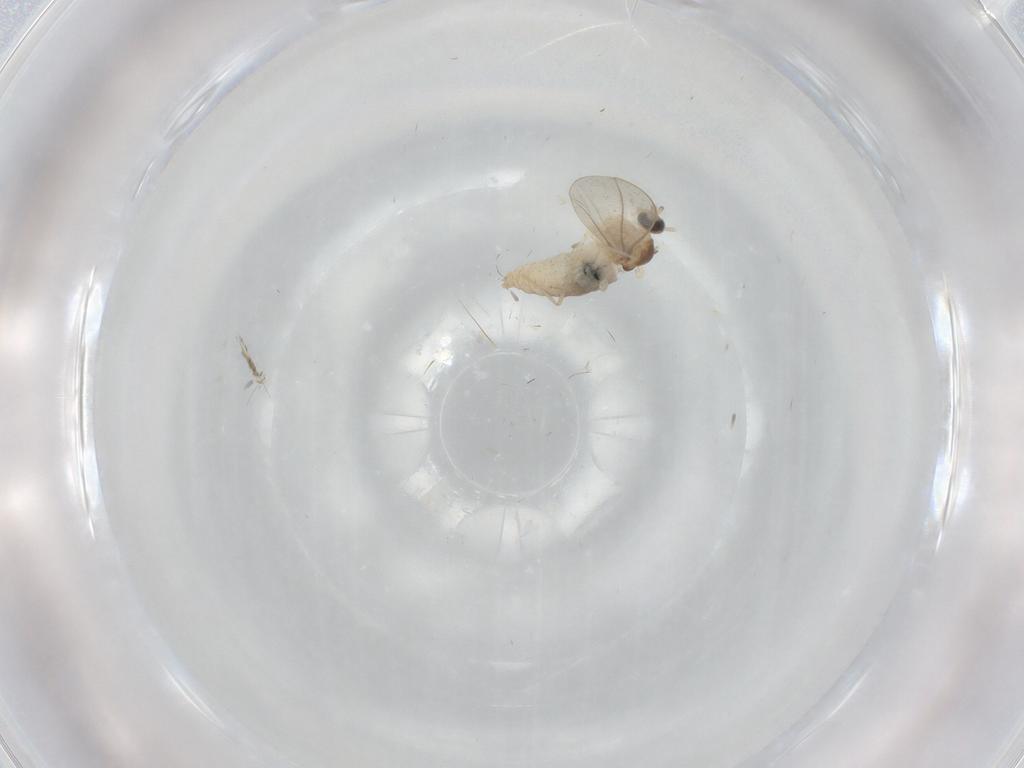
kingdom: Animalia
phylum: Arthropoda
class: Insecta
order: Diptera
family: Cecidomyiidae
